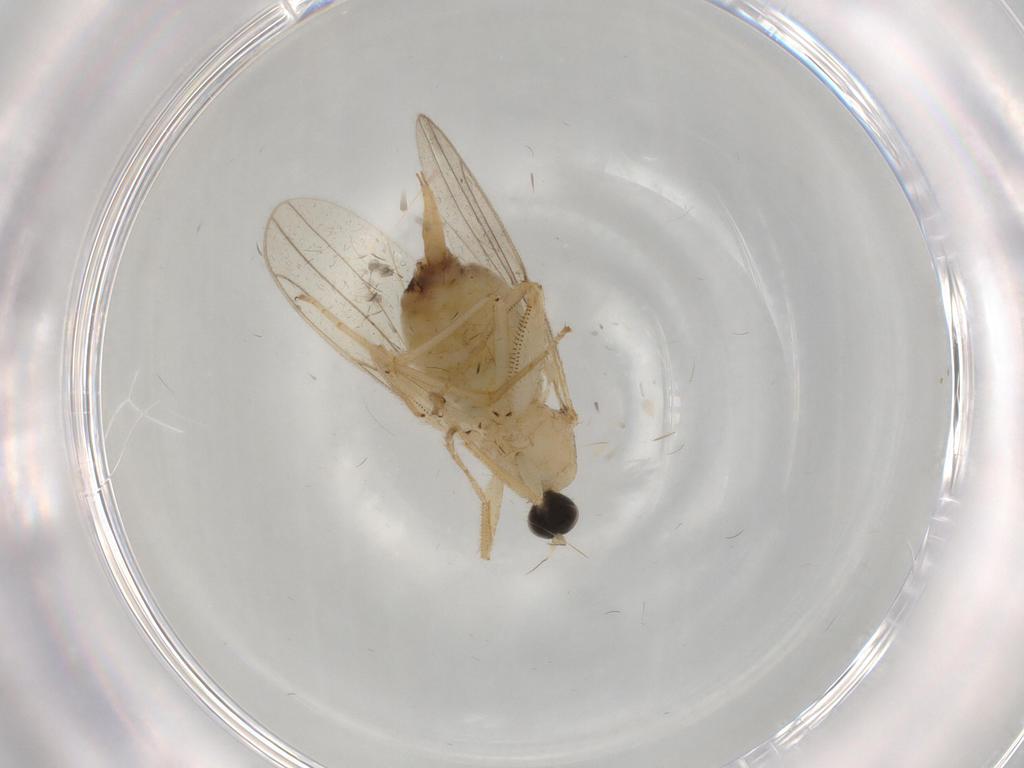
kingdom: Animalia
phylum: Arthropoda
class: Insecta
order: Diptera
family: Hybotidae
